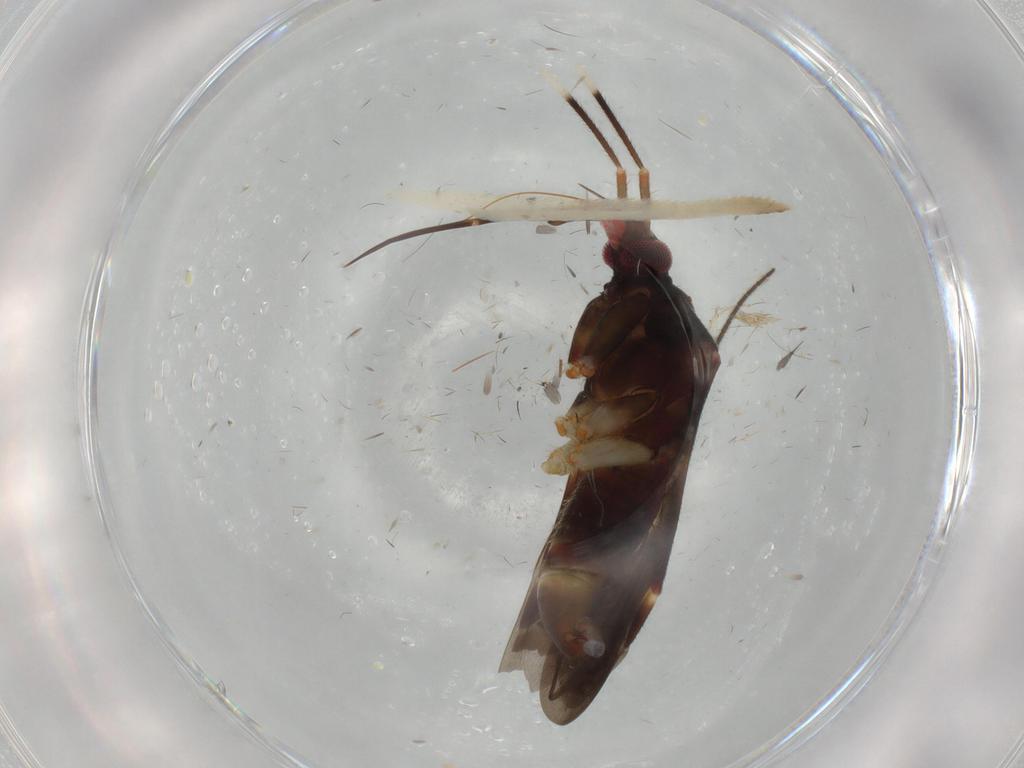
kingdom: Animalia
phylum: Arthropoda
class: Insecta
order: Hemiptera
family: Miridae
